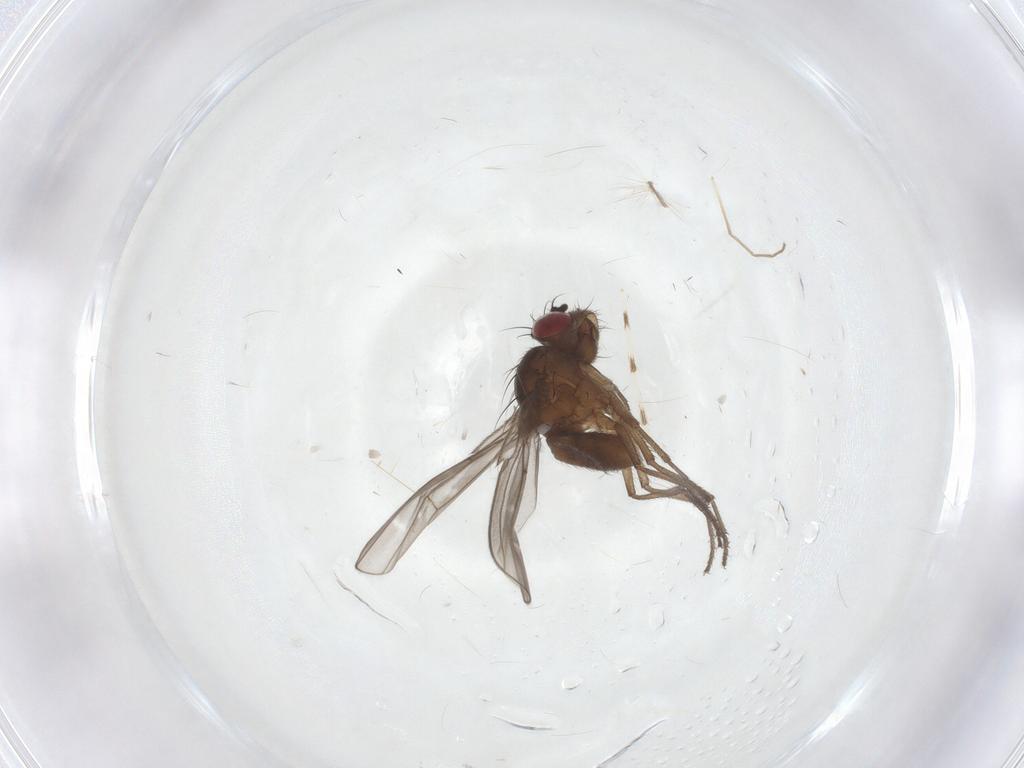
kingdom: Animalia
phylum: Arthropoda
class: Insecta
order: Diptera
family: Ephydridae
